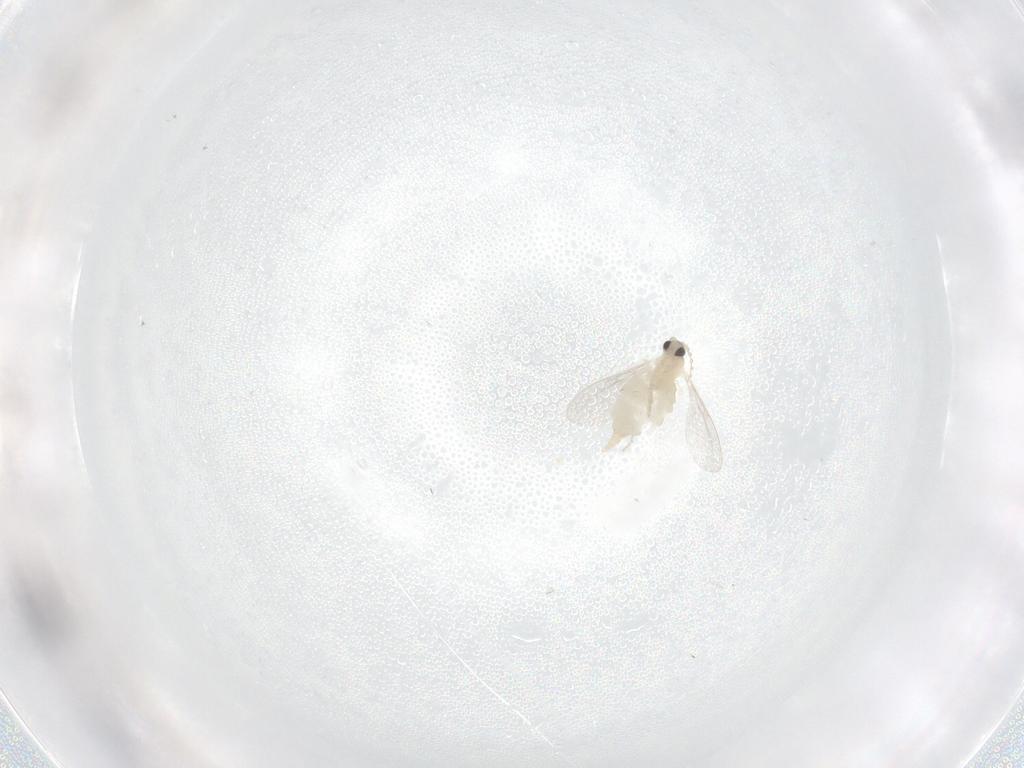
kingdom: Animalia
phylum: Arthropoda
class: Insecta
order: Diptera
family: Cecidomyiidae
